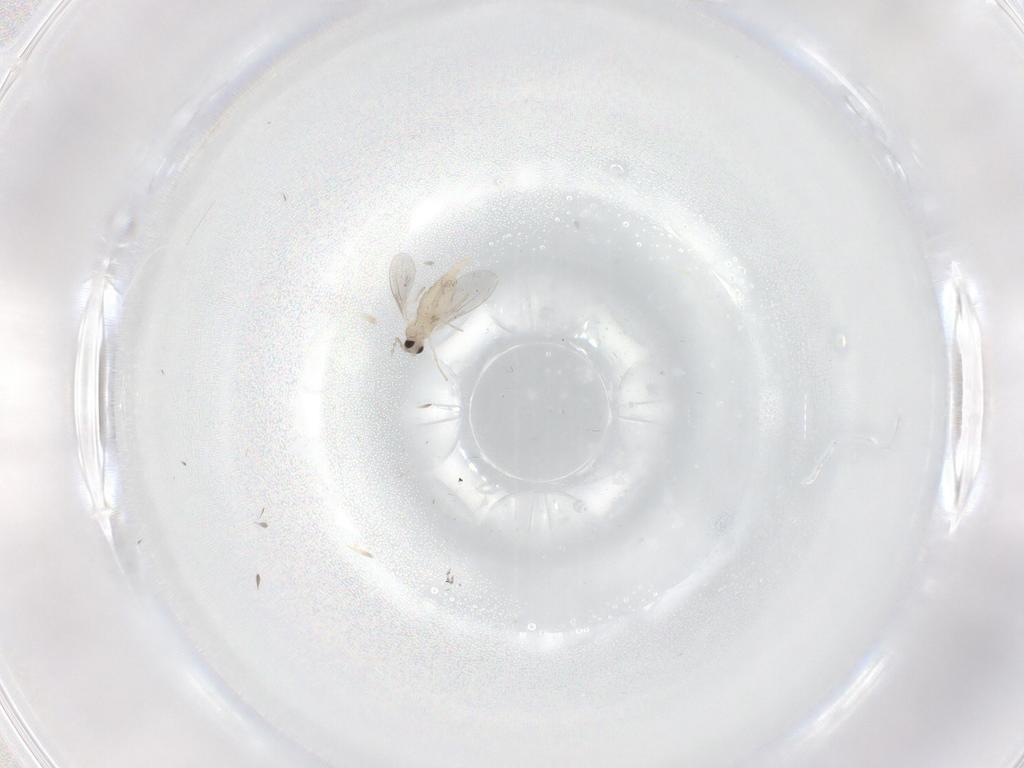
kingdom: Animalia
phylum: Arthropoda
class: Insecta
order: Diptera
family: Cecidomyiidae
